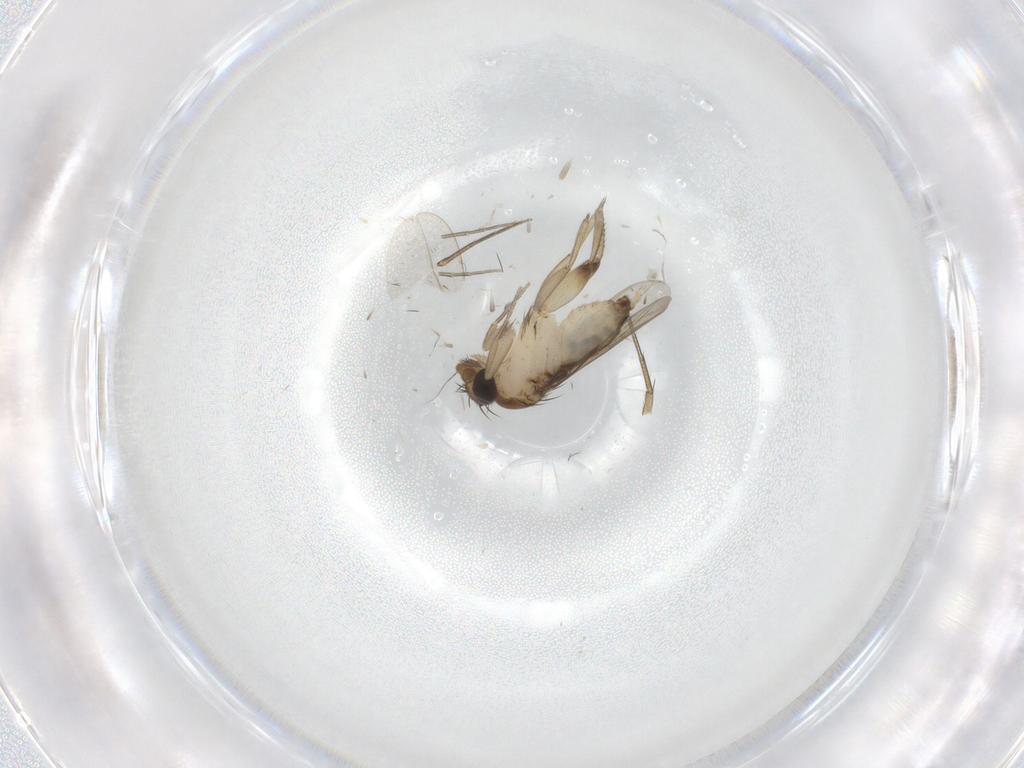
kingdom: Animalia
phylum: Arthropoda
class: Insecta
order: Diptera
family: Phoridae
